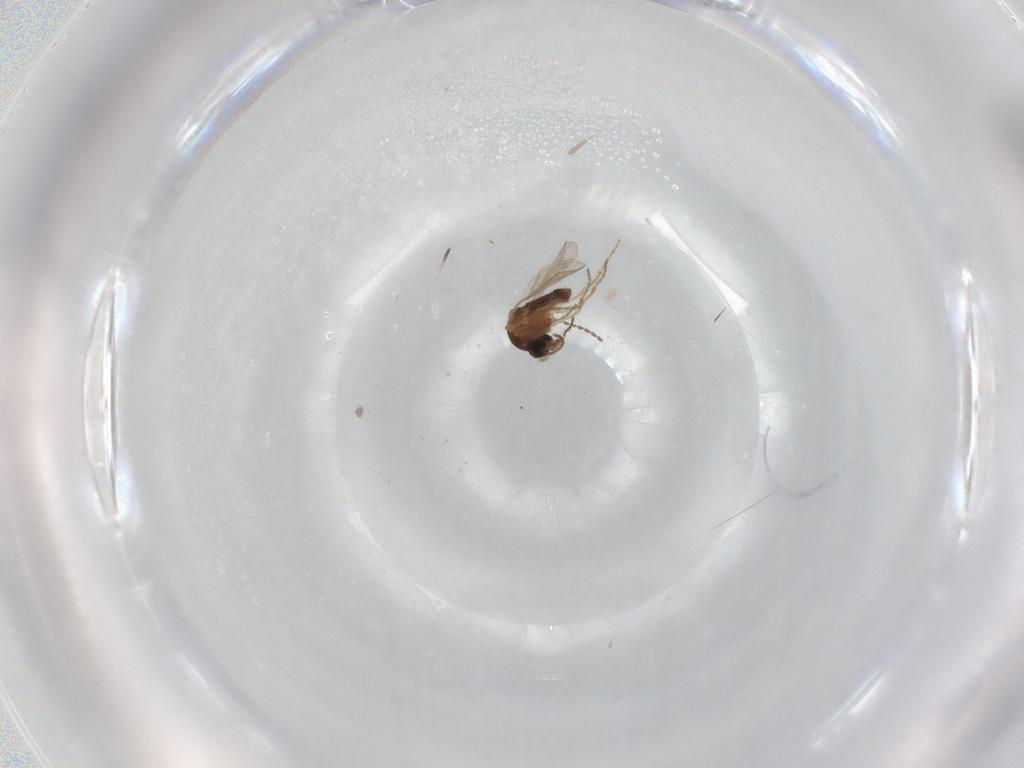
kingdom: Animalia
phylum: Arthropoda
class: Insecta
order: Diptera
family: Ceratopogonidae
